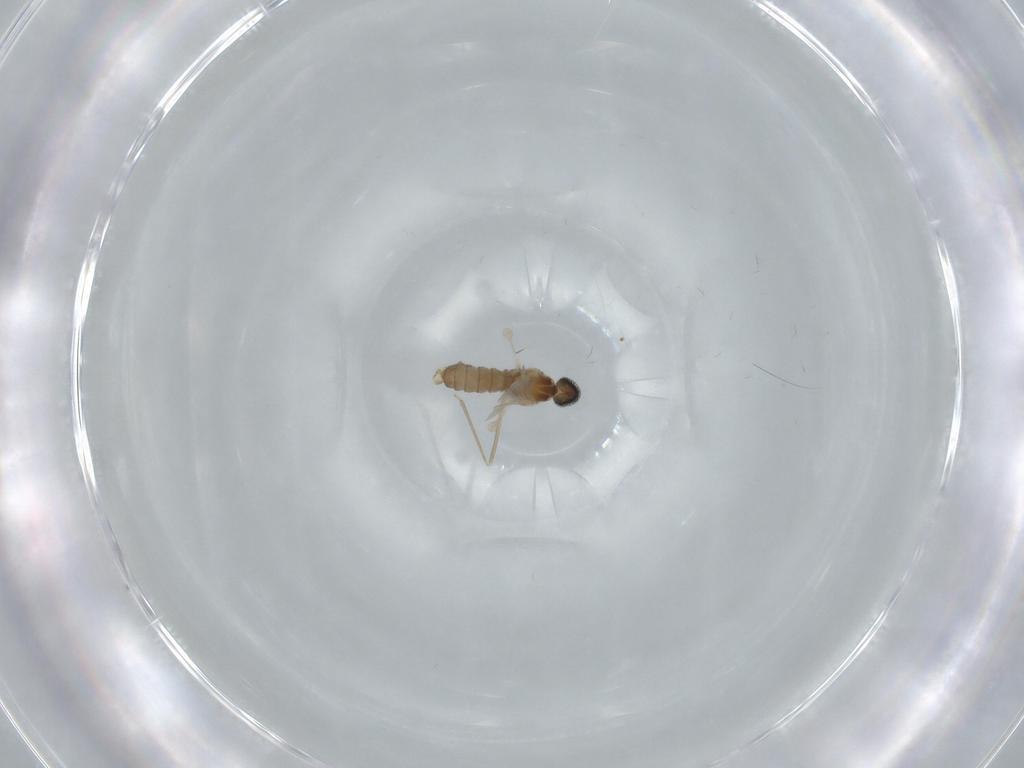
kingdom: Animalia
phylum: Arthropoda
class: Insecta
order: Diptera
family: Cecidomyiidae
